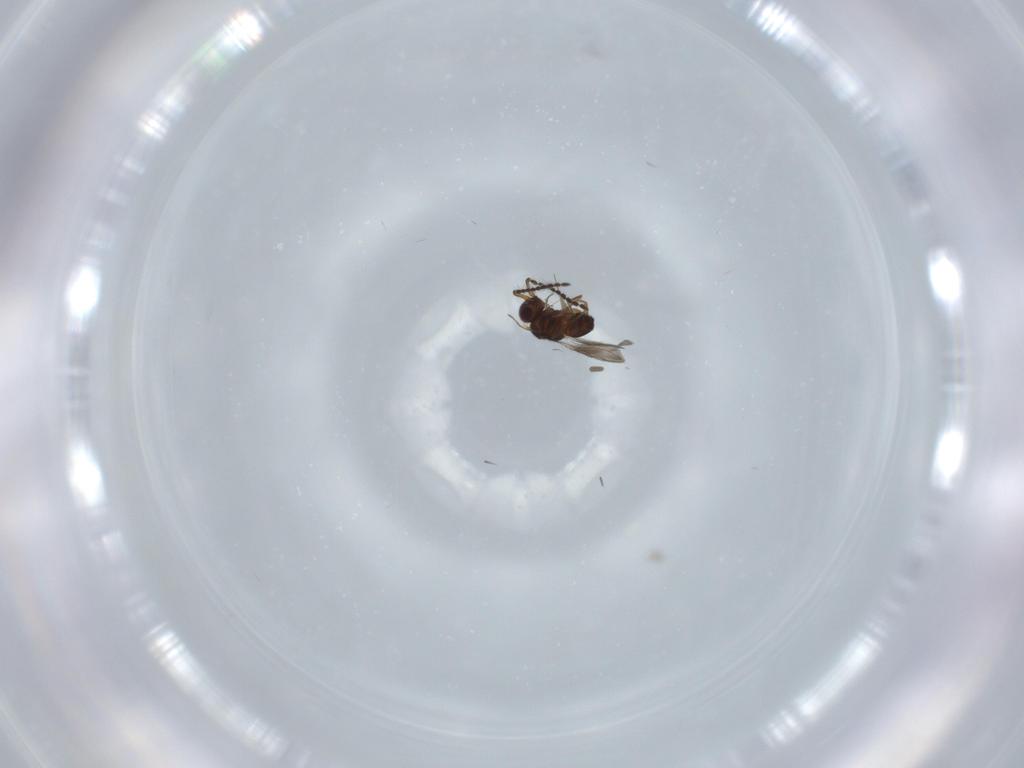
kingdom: Animalia
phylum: Arthropoda
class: Insecta
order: Hymenoptera
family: Ceraphronidae
